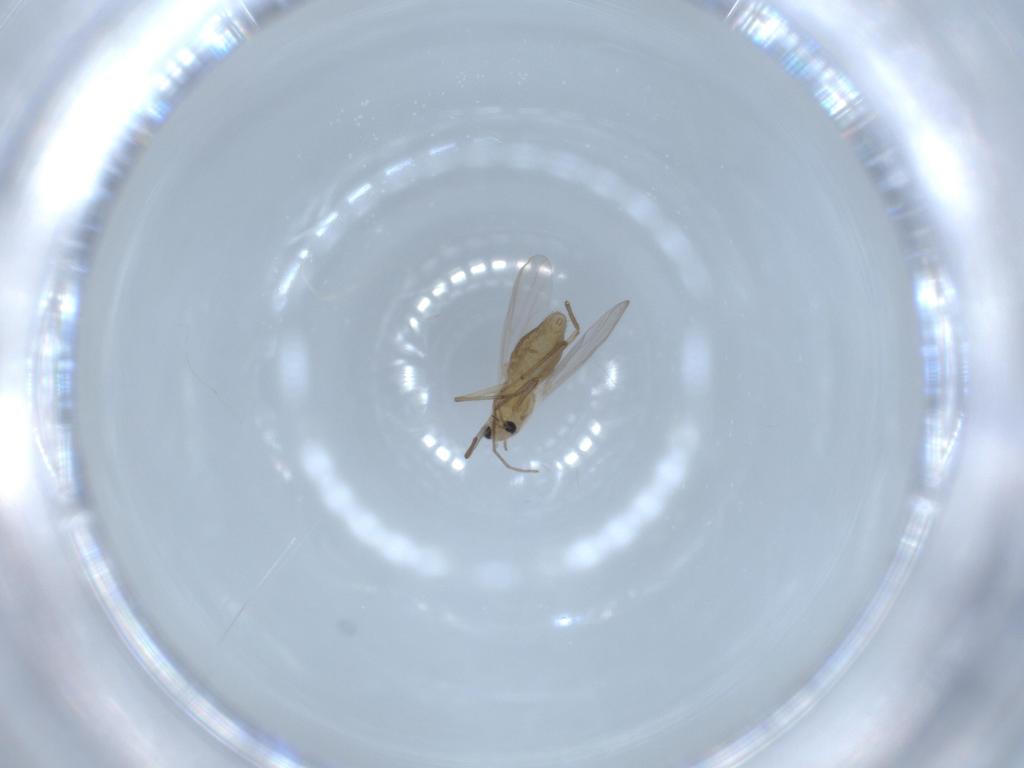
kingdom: Animalia
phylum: Arthropoda
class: Insecta
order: Diptera
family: Chironomidae
